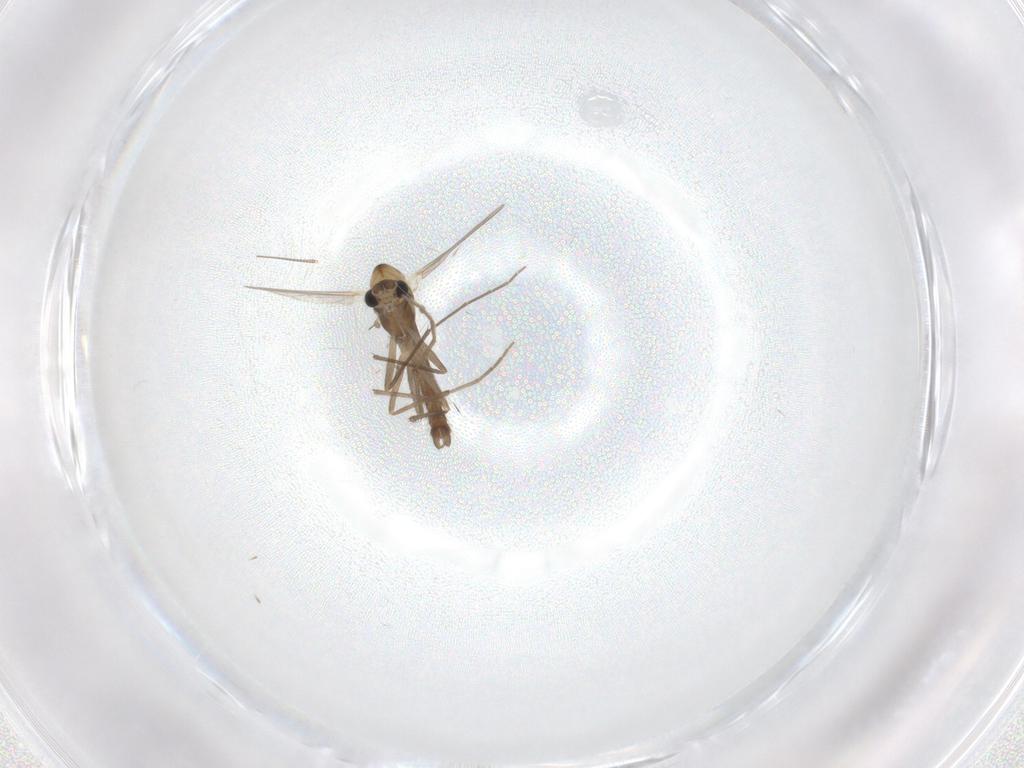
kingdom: Animalia
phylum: Arthropoda
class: Insecta
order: Diptera
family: Chironomidae
